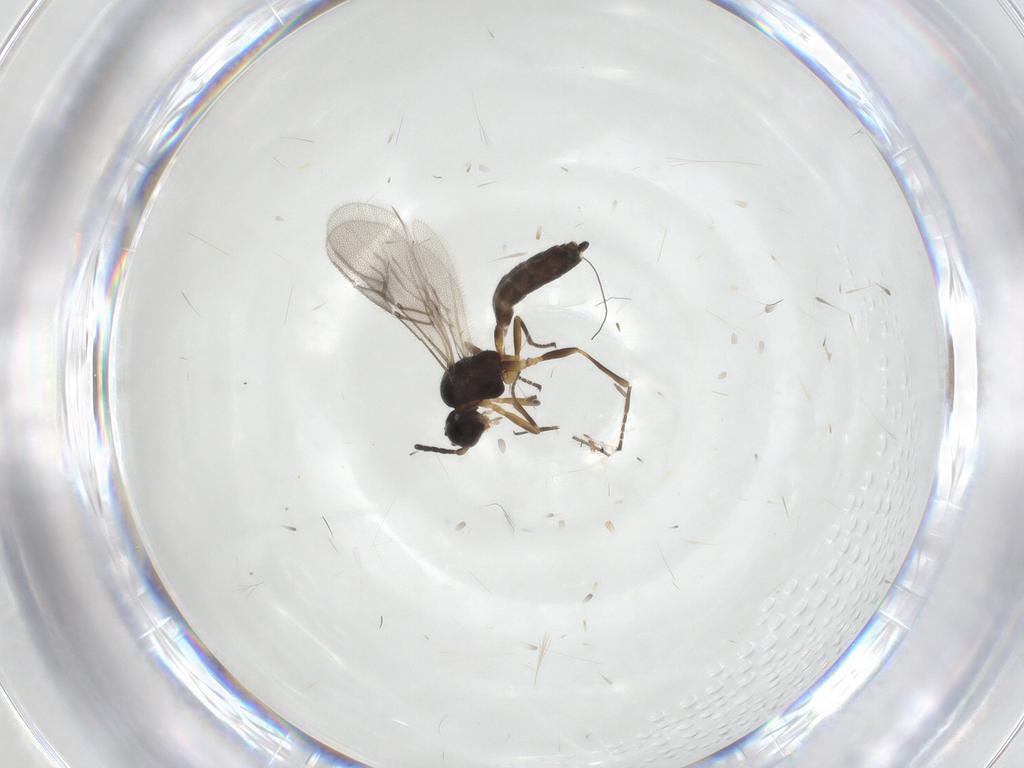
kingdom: Animalia
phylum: Arthropoda
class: Insecta
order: Hymenoptera
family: Braconidae
